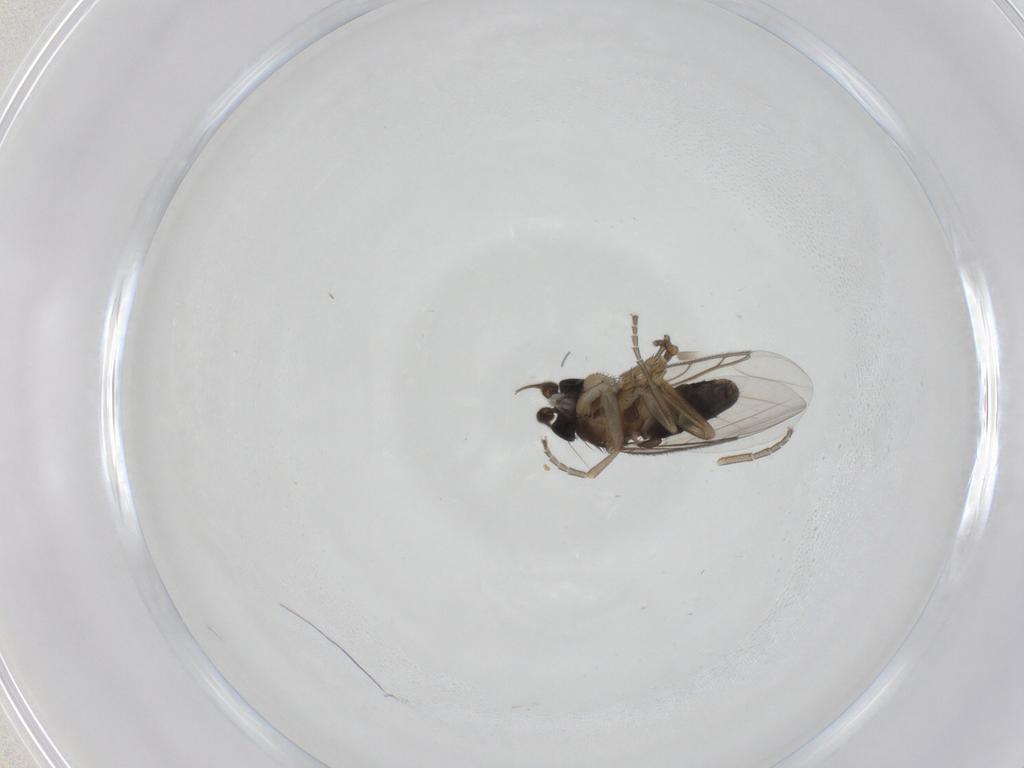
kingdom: Animalia
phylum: Arthropoda
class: Insecta
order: Diptera
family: Phoridae
